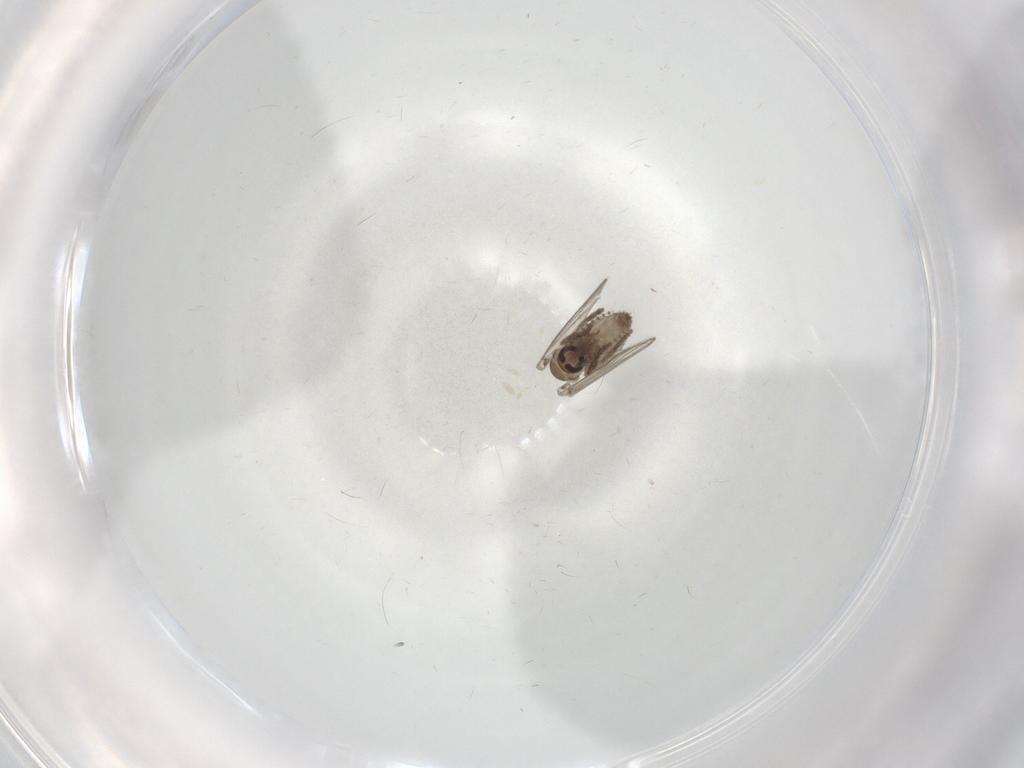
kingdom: Animalia
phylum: Arthropoda
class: Insecta
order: Diptera
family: Psychodidae
